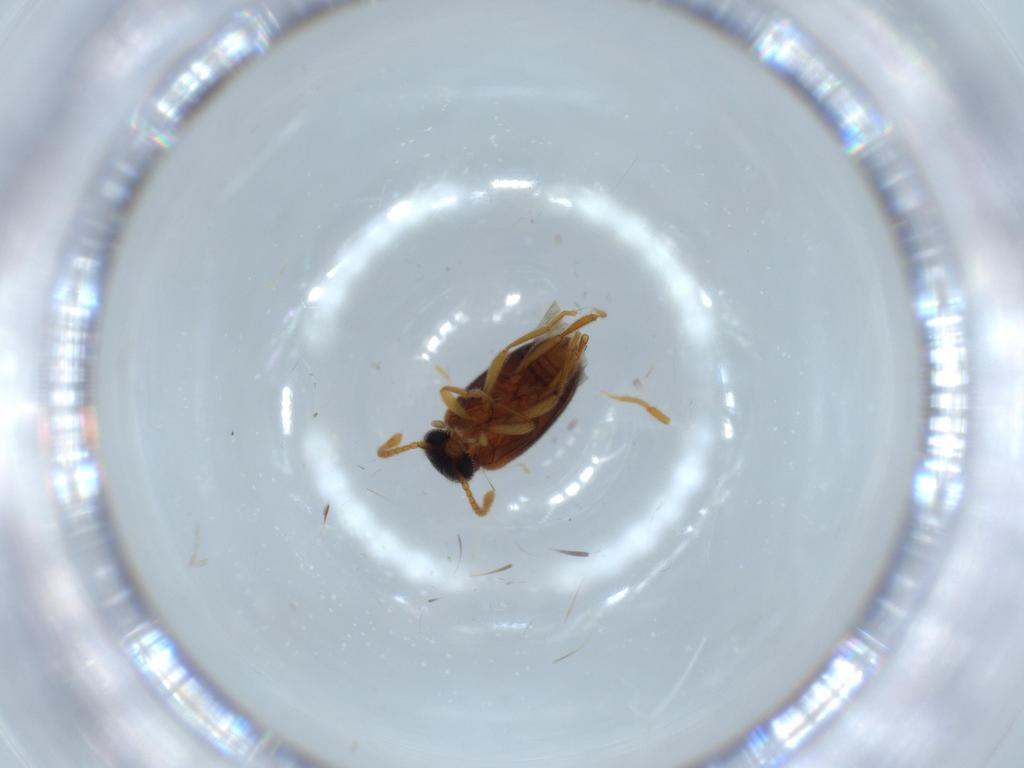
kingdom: Animalia
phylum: Arthropoda
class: Insecta
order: Coleoptera
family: Aderidae
